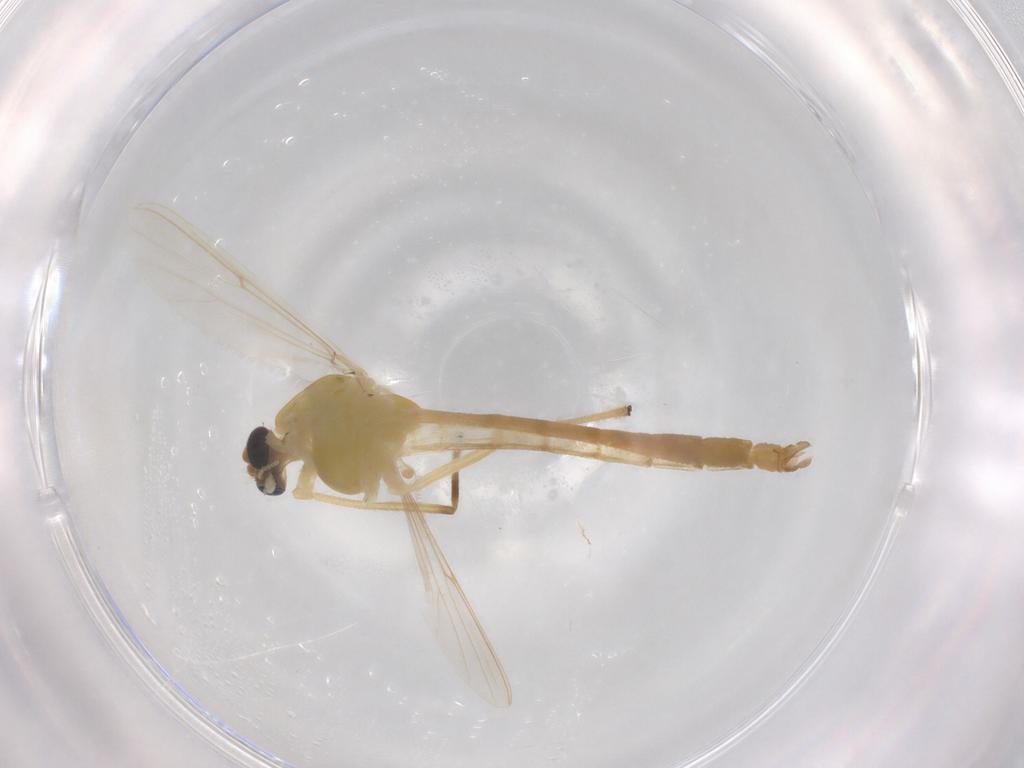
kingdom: Animalia
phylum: Arthropoda
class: Insecta
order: Diptera
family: Chironomidae
